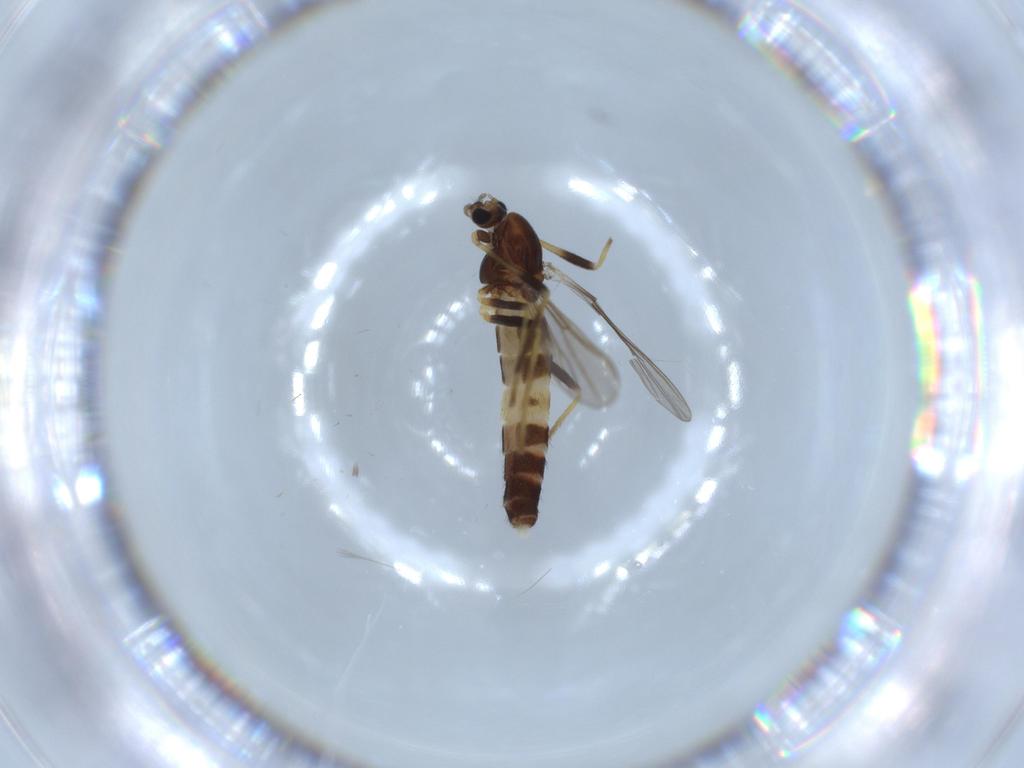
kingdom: Animalia
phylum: Arthropoda
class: Insecta
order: Diptera
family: Chironomidae
